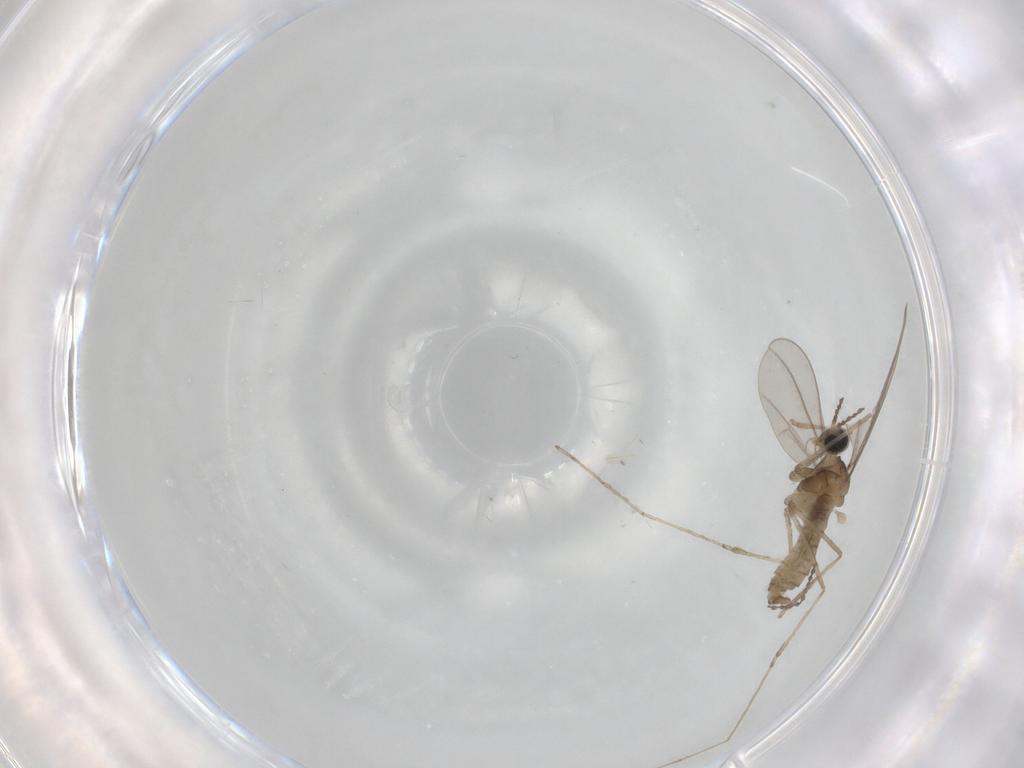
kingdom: Animalia
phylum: Arthropoda
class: Insecta
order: Diptera
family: Cecidomyiidae
